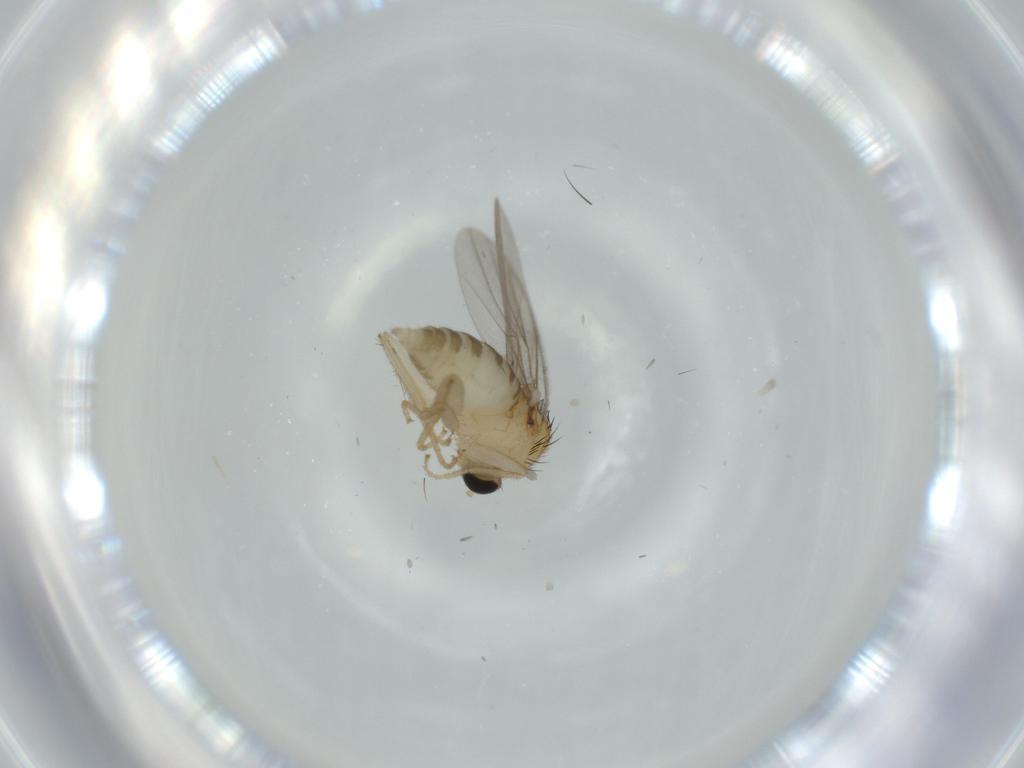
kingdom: Animalia
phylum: Arthropoda
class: Insecta
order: Diptera
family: Hybotidae
